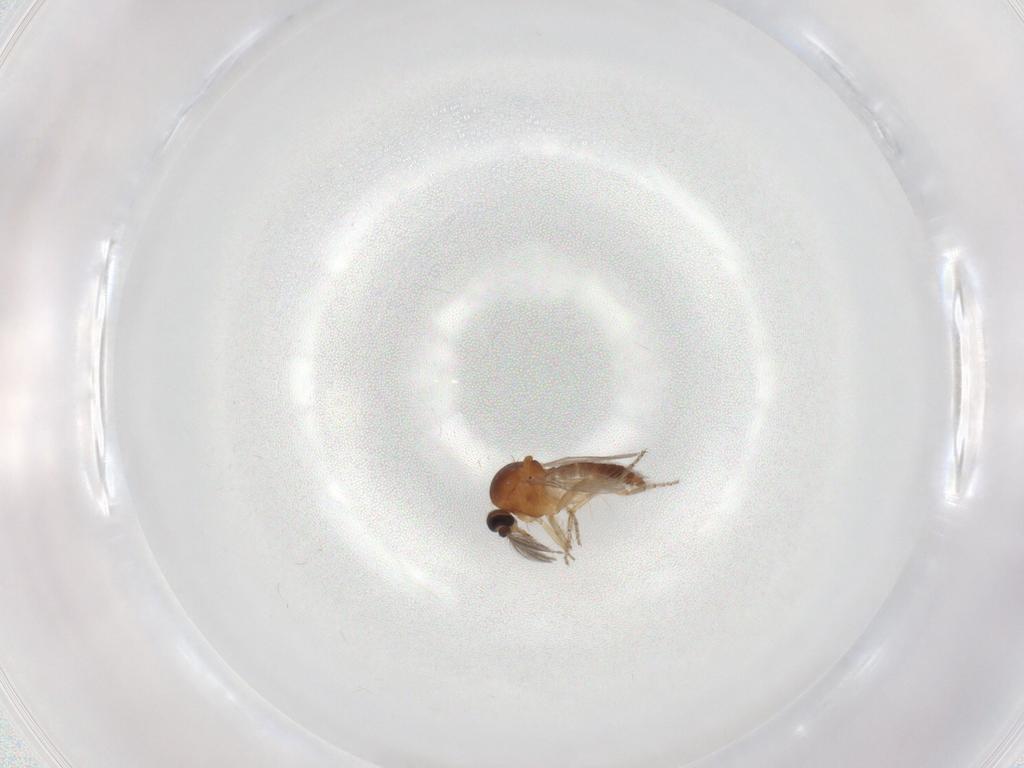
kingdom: Animalia
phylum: Arthropoda
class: Insecta
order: Diptera
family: Ceratopogonidae
